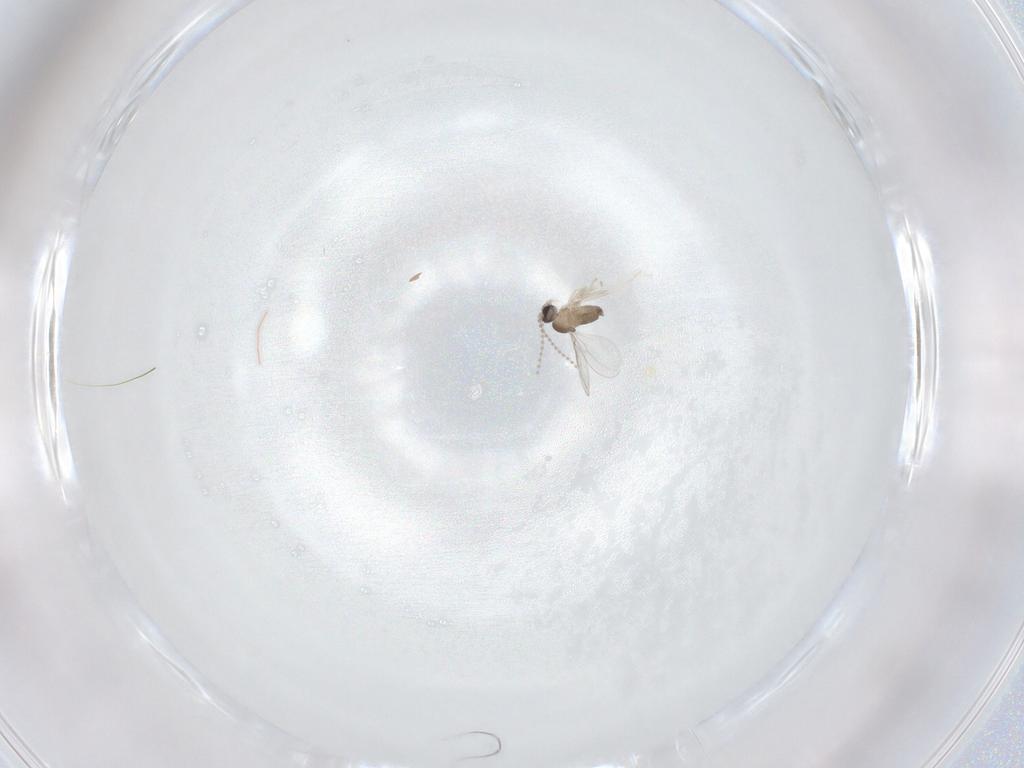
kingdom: Animalia
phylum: Arthropoda
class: Insecta
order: Diptera
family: Cecidomyiidae
